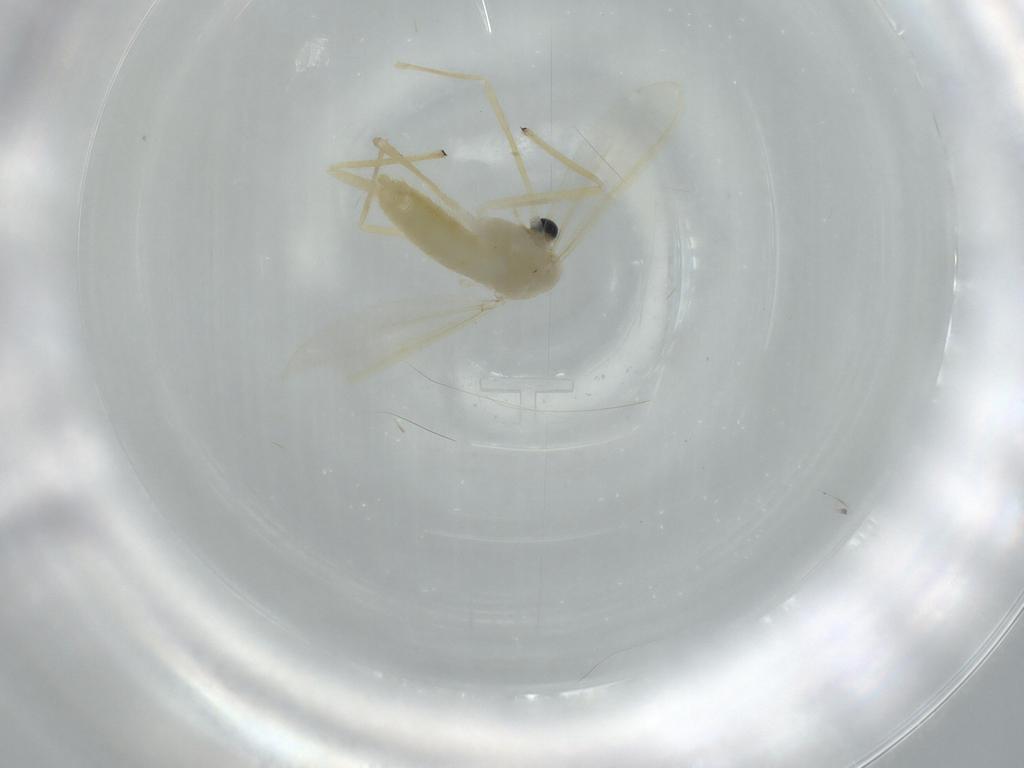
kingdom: Animalia
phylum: Arthropoda
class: Insecta
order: Diptera
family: Chironomidae
